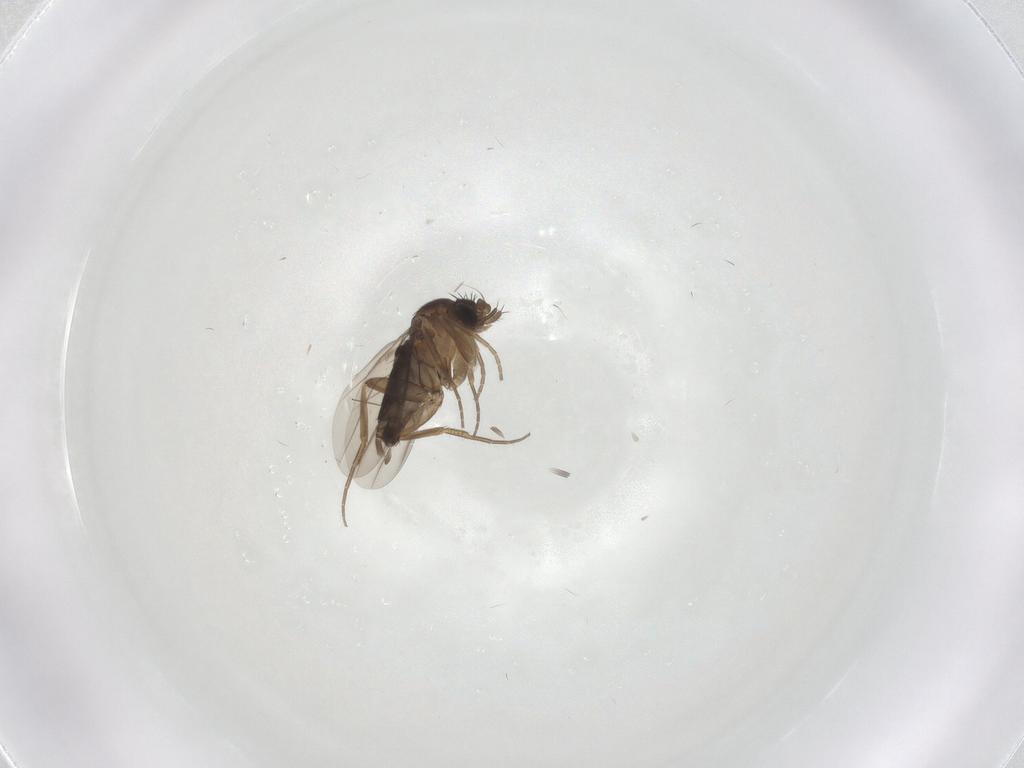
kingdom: Animalia
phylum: Arthropoda
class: Insecta
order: Diptera
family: Phoridae
